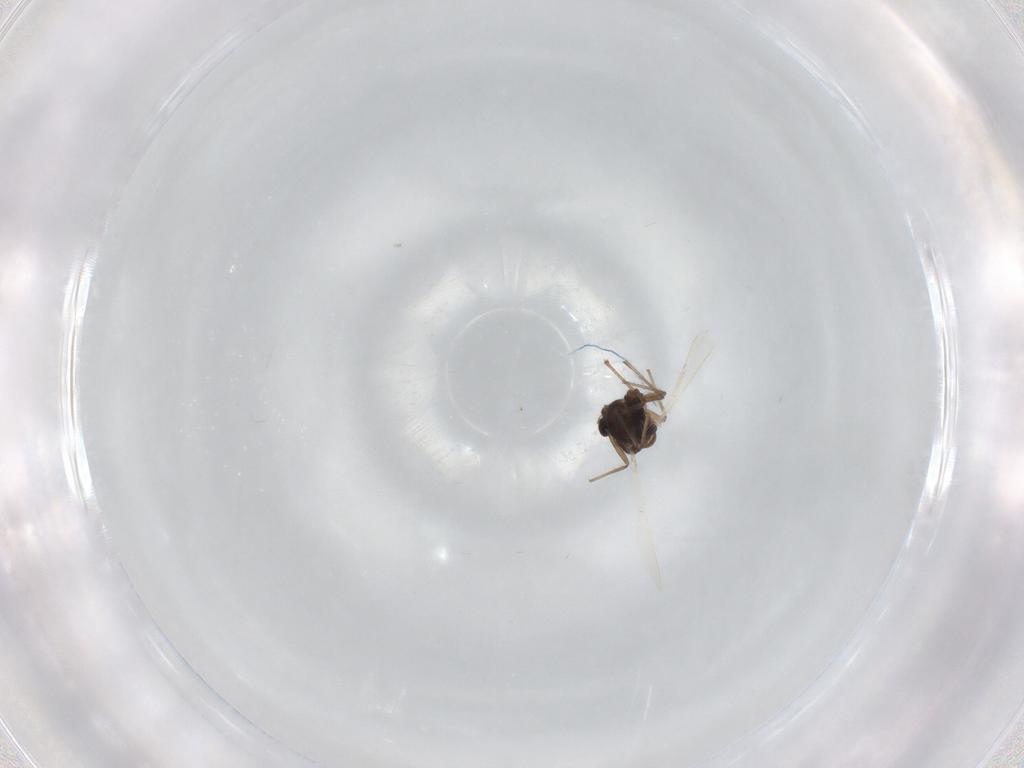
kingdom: Animalia
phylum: Arthropoda
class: Insecta
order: Diptera
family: Chironomidae
